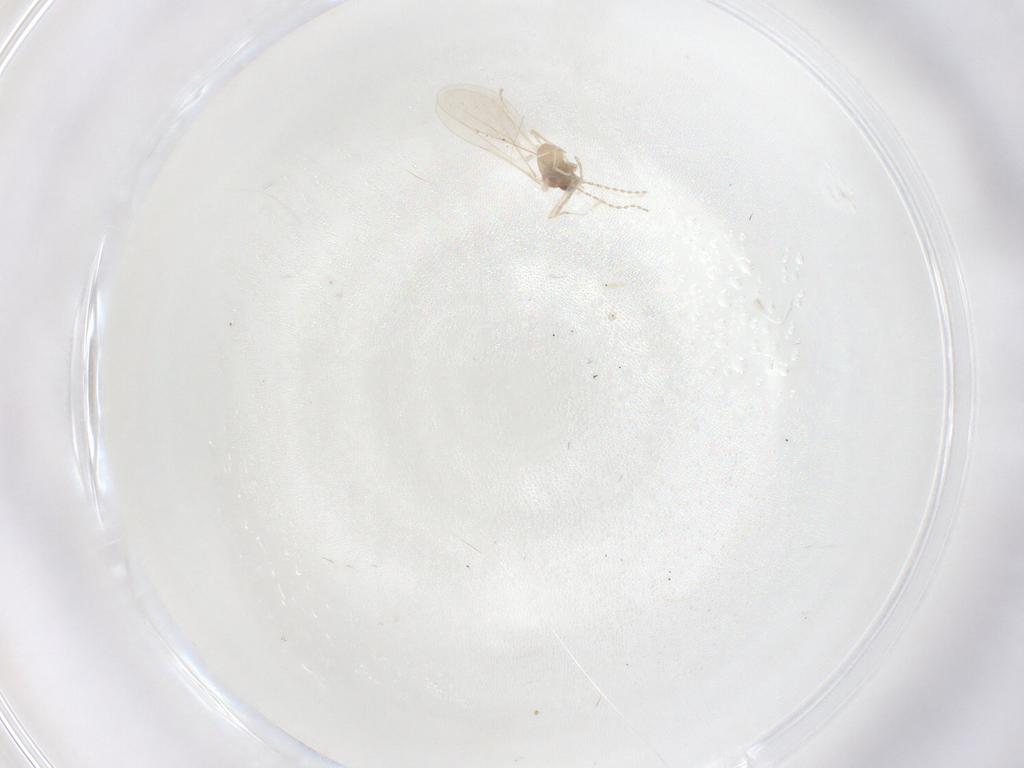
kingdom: Animalia
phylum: Arthropoda
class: Insecta
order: Diptera
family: Cecidomyiidae
